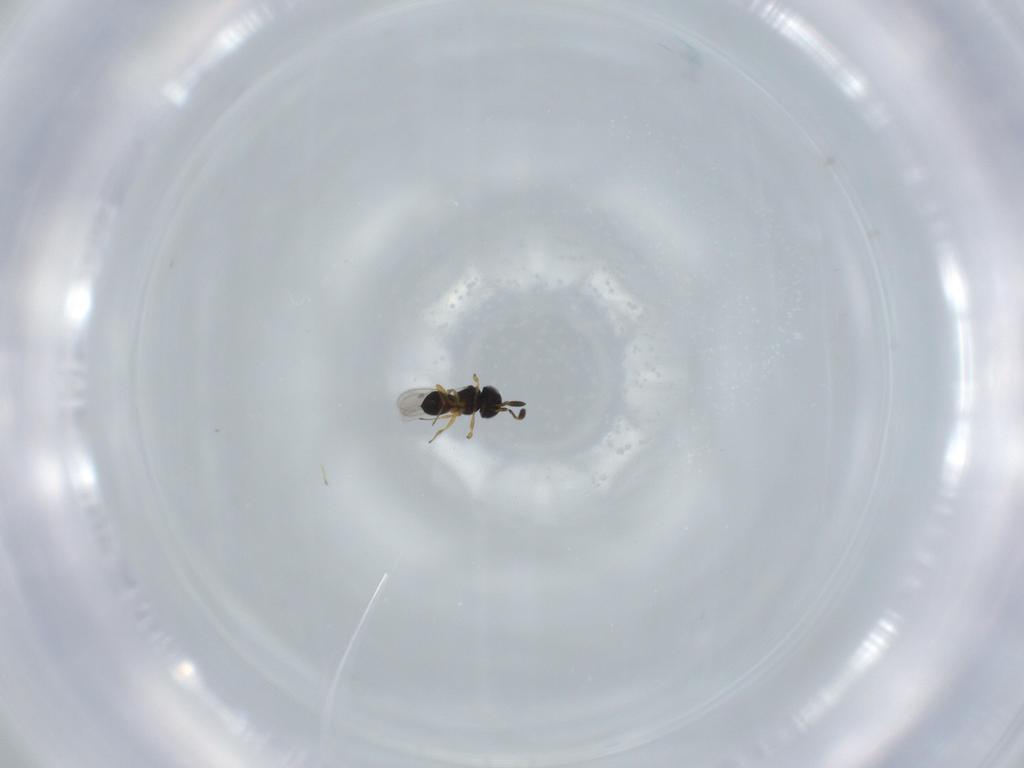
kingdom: Animalia
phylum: Arthropoda
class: Insecta
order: Hymenoptera
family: Scelionidae
